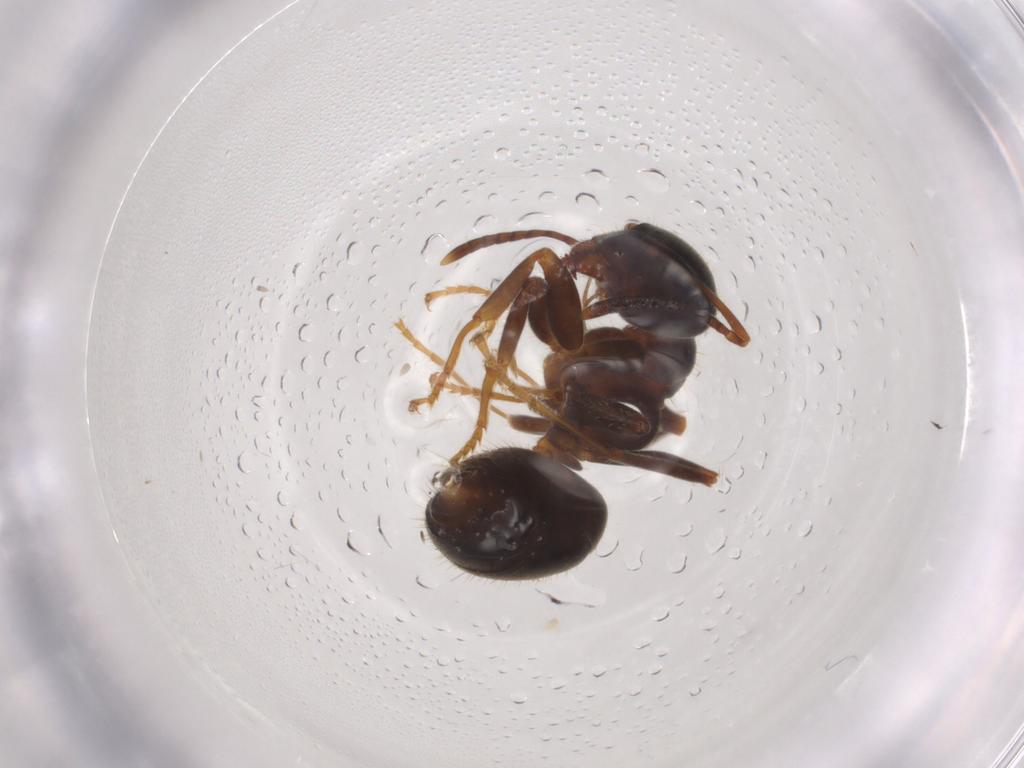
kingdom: Animalia
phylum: Arthropoda
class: Insecta
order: Hymenoptera
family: Formicidae
